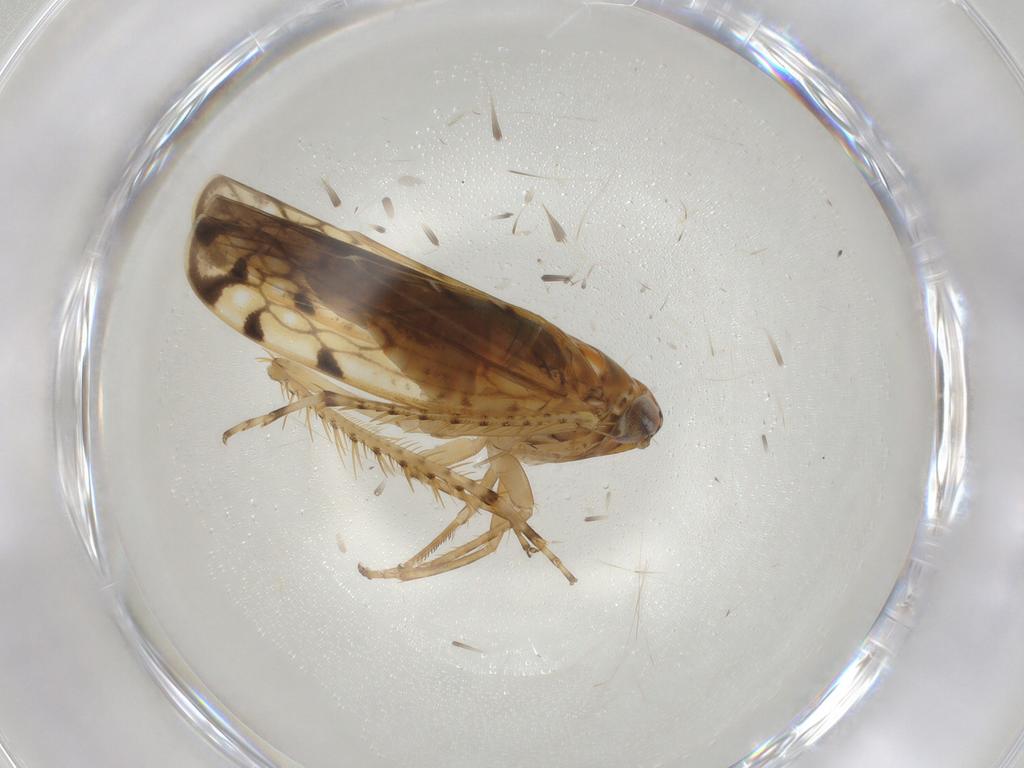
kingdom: Animalia
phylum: Arthropoda
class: Insecta
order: Hemiptera
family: Cicadellidae
